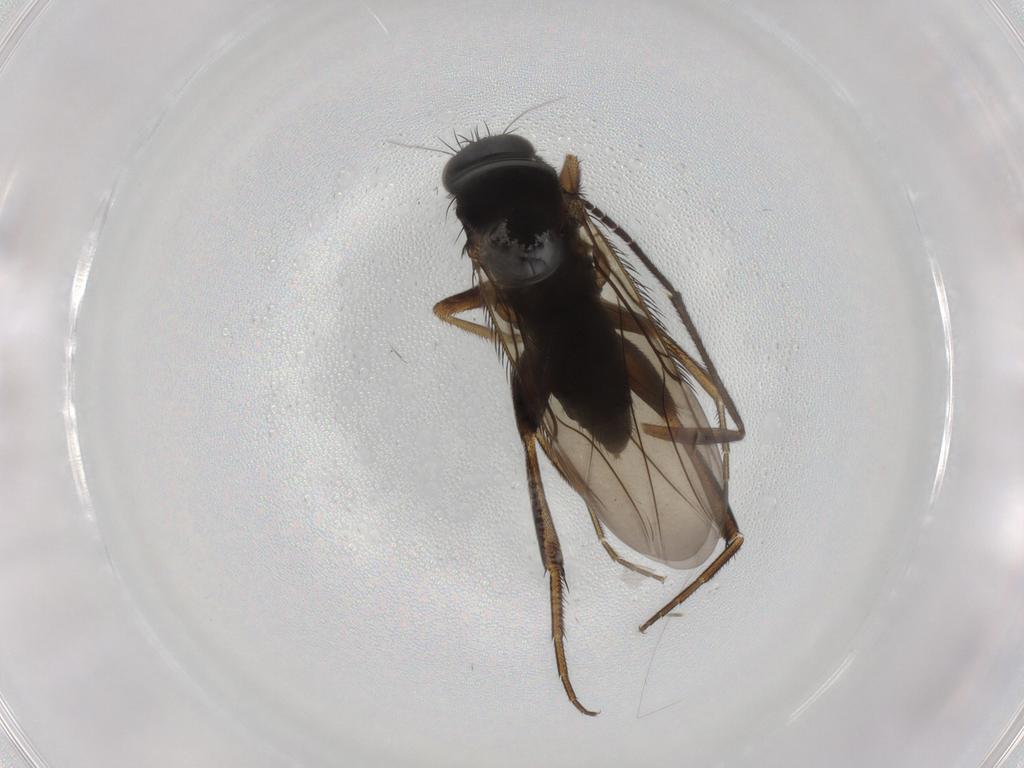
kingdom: Animalia
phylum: Arthropoda
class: Insecta
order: Diptera
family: Phoridae
